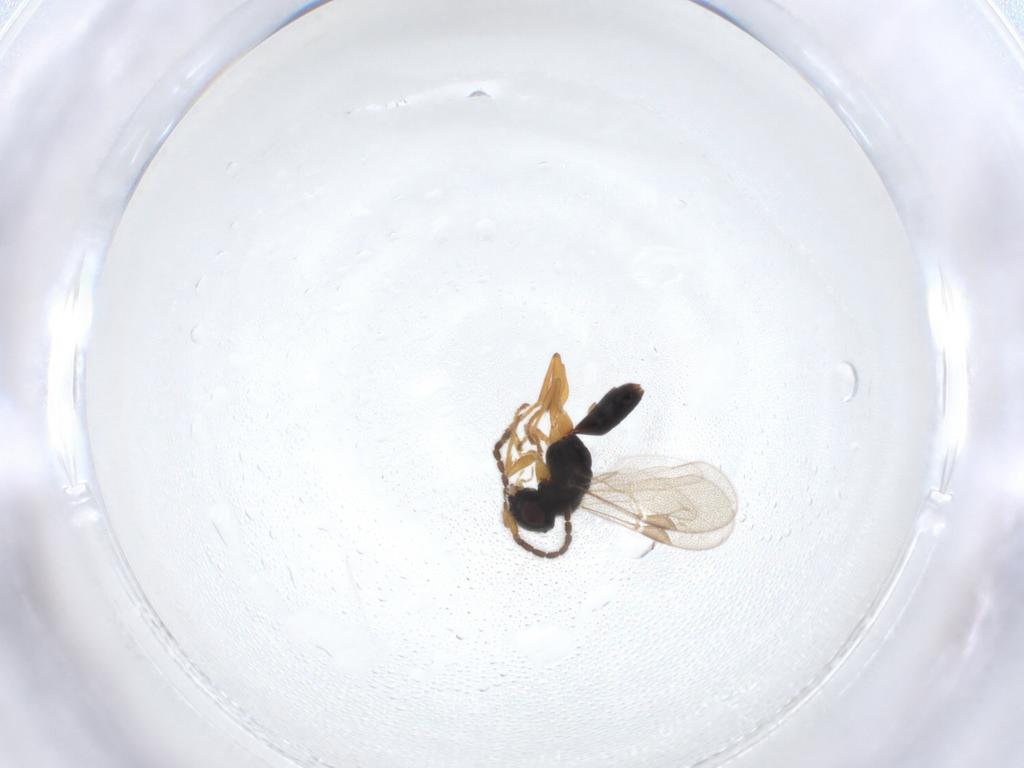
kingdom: Animalia
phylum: Arthropoda
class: Insecta
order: Hymenoptera
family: Dryinidae
